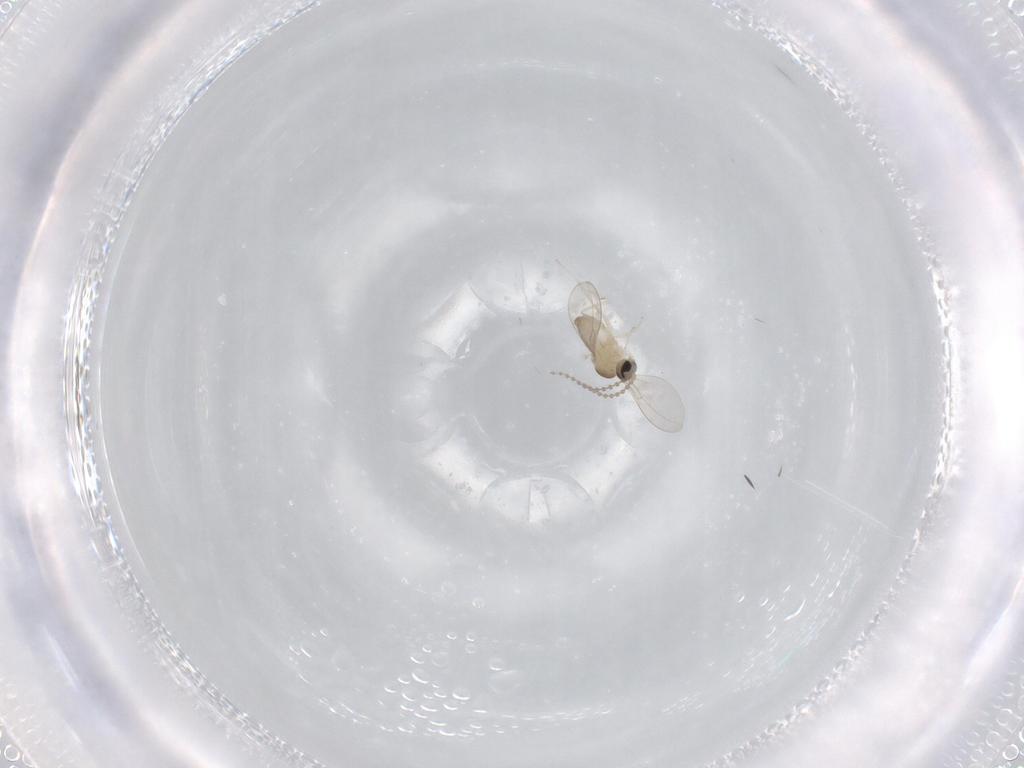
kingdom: Animalia
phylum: Arthropoda
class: Insecta
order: Diptera
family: Cecidomyiidae
